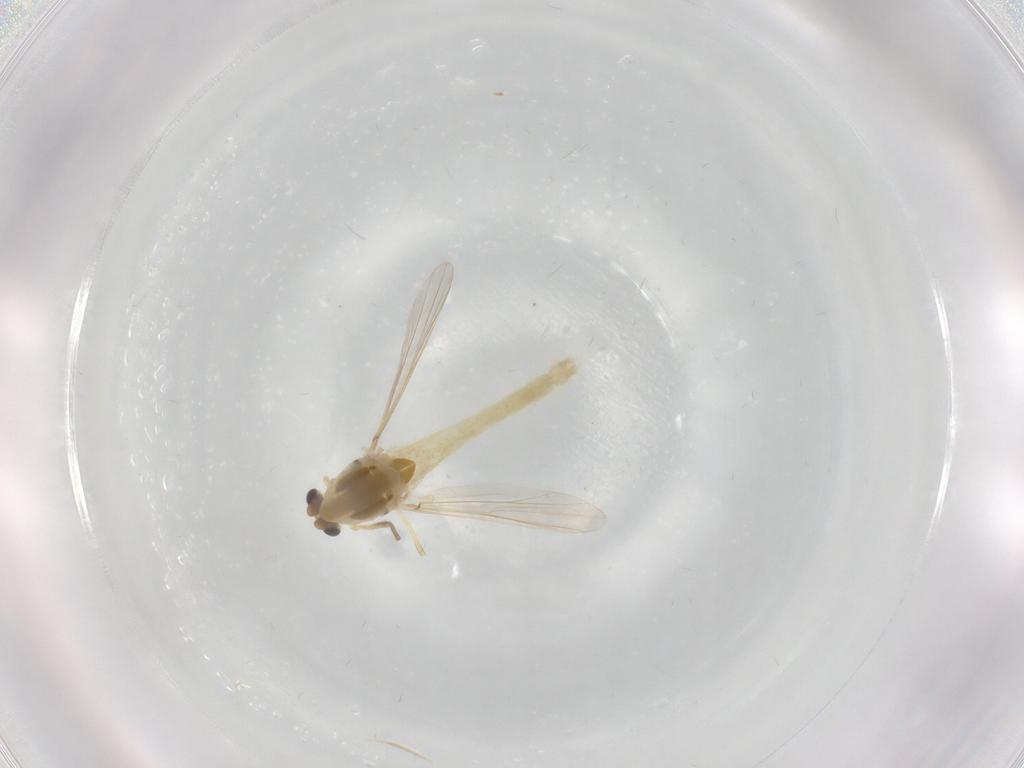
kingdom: Animalia
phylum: Arthropoda
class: Insecta
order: Diptera
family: Chironomidae
